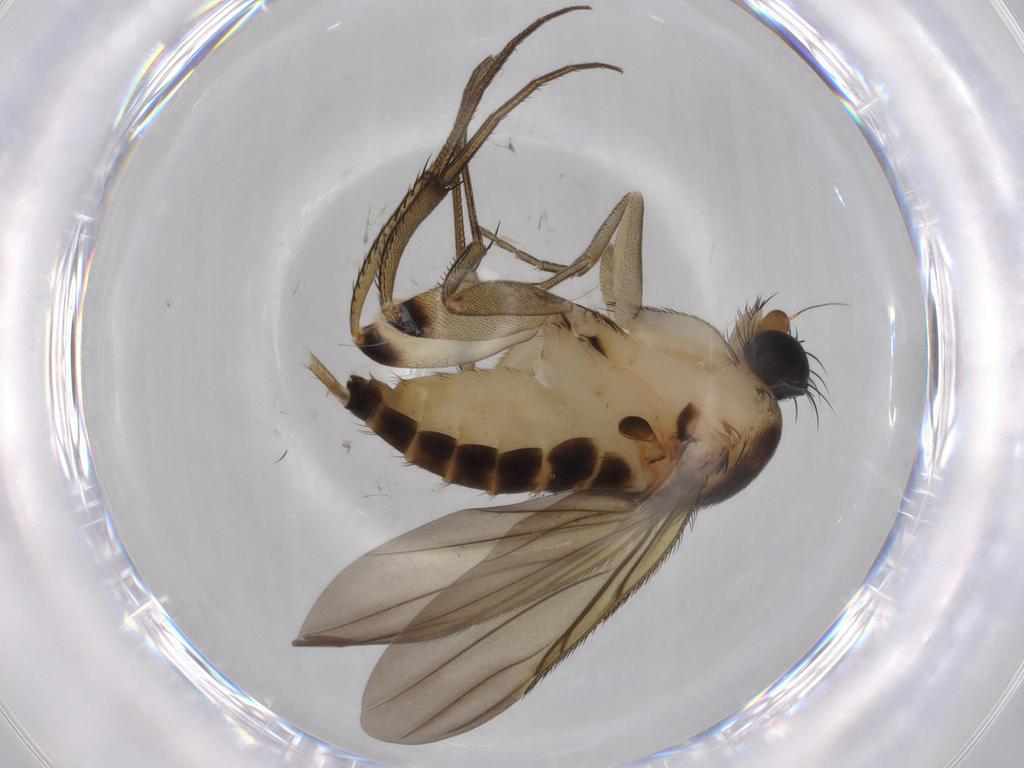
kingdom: Animalia
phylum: Arthropoda
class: Insecta
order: Diptera
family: Phoridae
